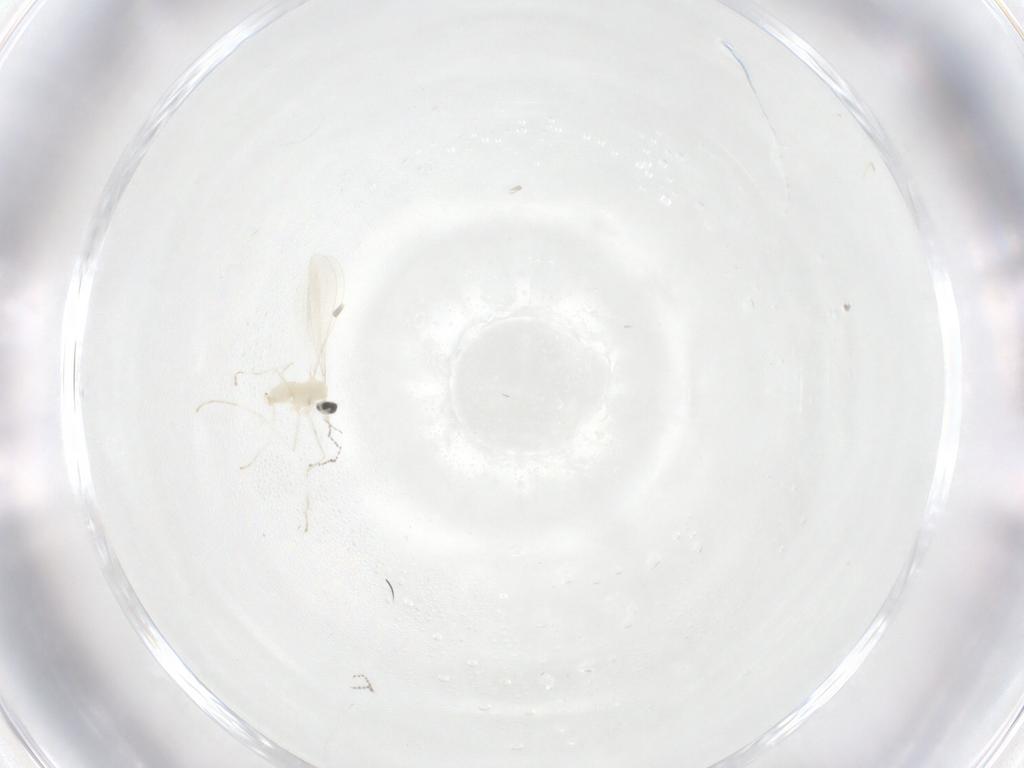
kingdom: Animalia
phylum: Arthropoda
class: Insecta
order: Diptera
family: Cecidomyiidae
